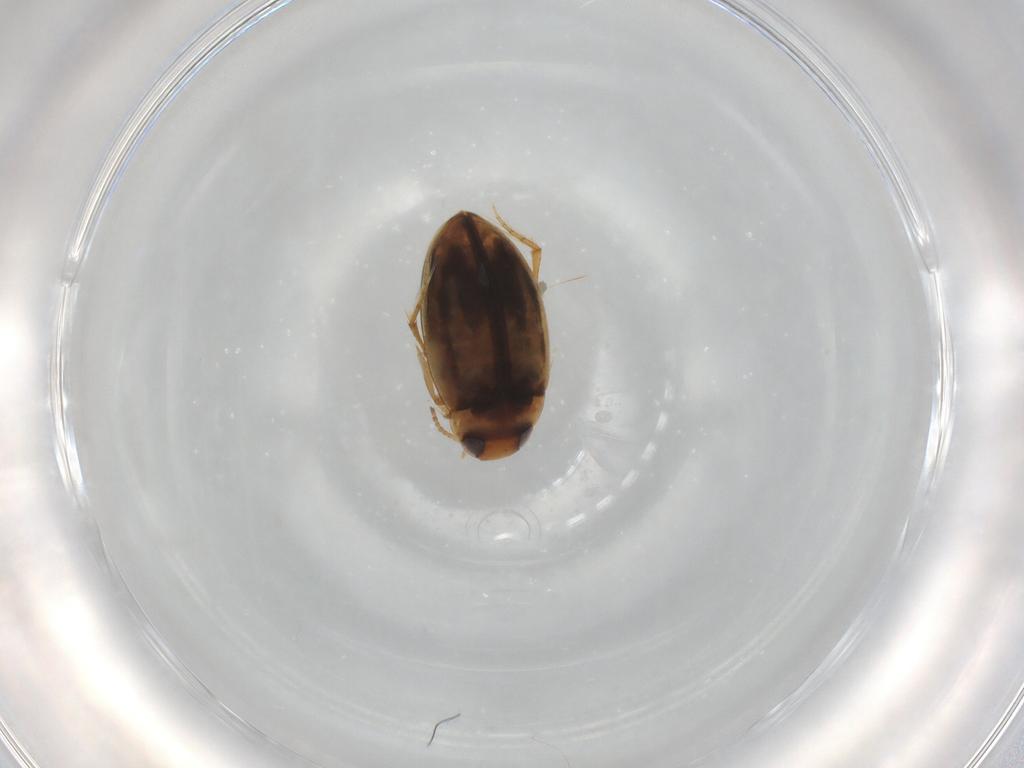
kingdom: Animalia
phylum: Arthropoda
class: Insecta
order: Coleoptera
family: Dytiscidae
